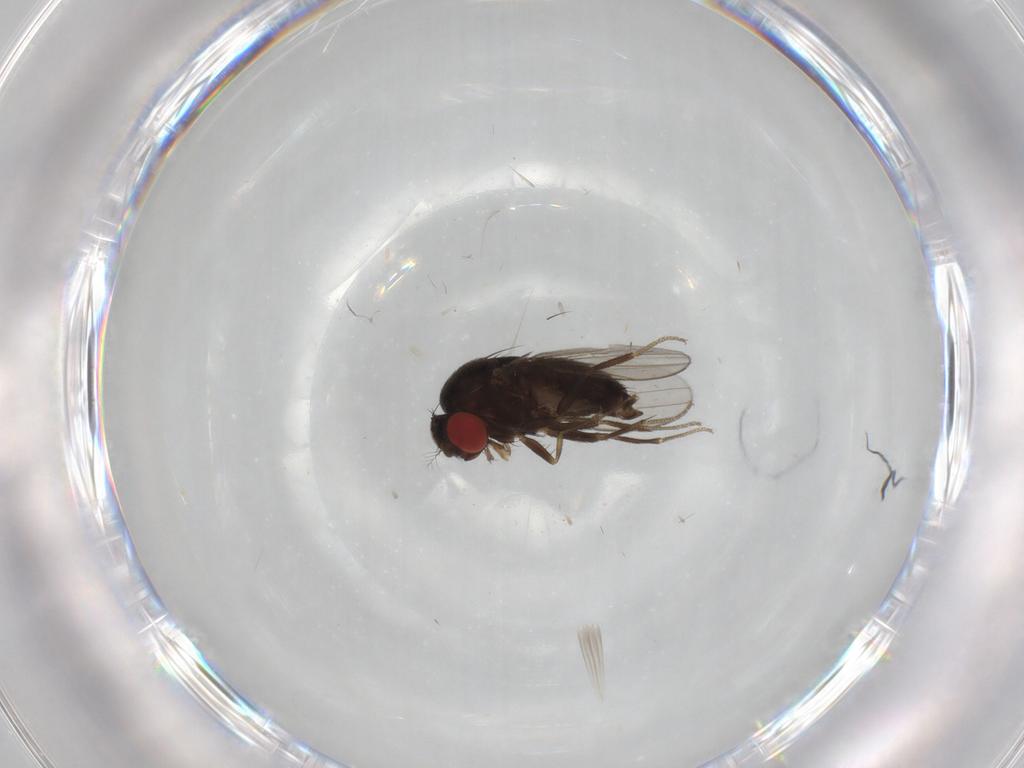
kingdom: Animalia
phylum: Arthropoda
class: Insecta
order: Diptera
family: Drosophilidae
